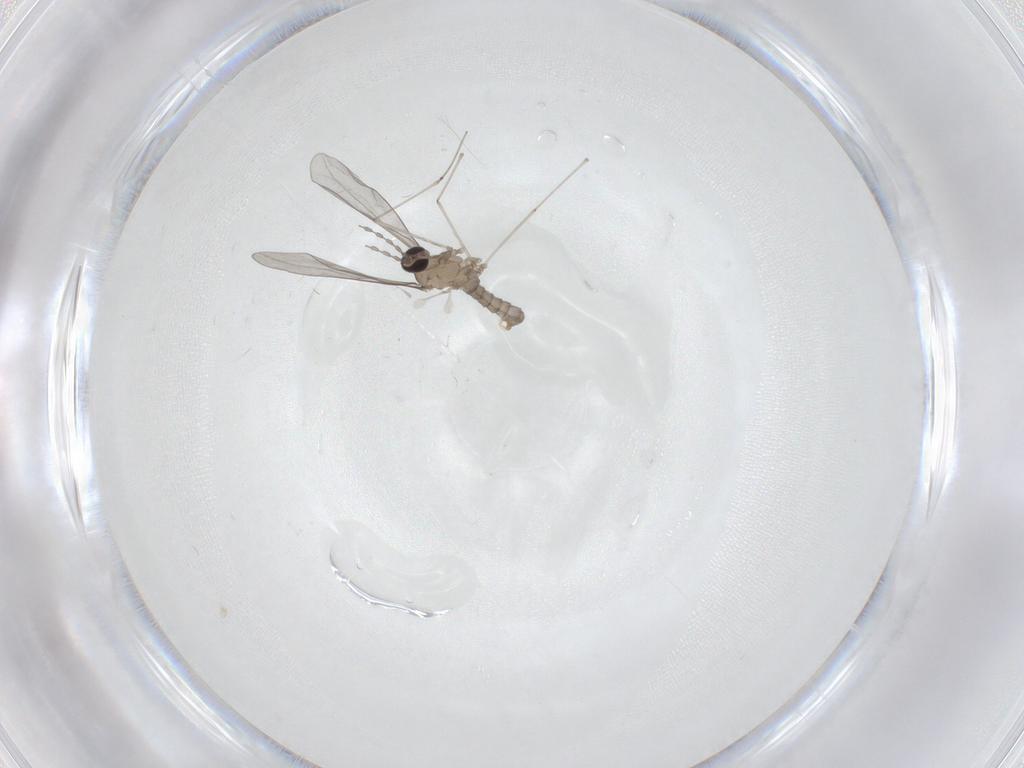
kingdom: Animalia
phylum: Arthropoda
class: Insecta
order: Diptera
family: Cecidomyiidae
